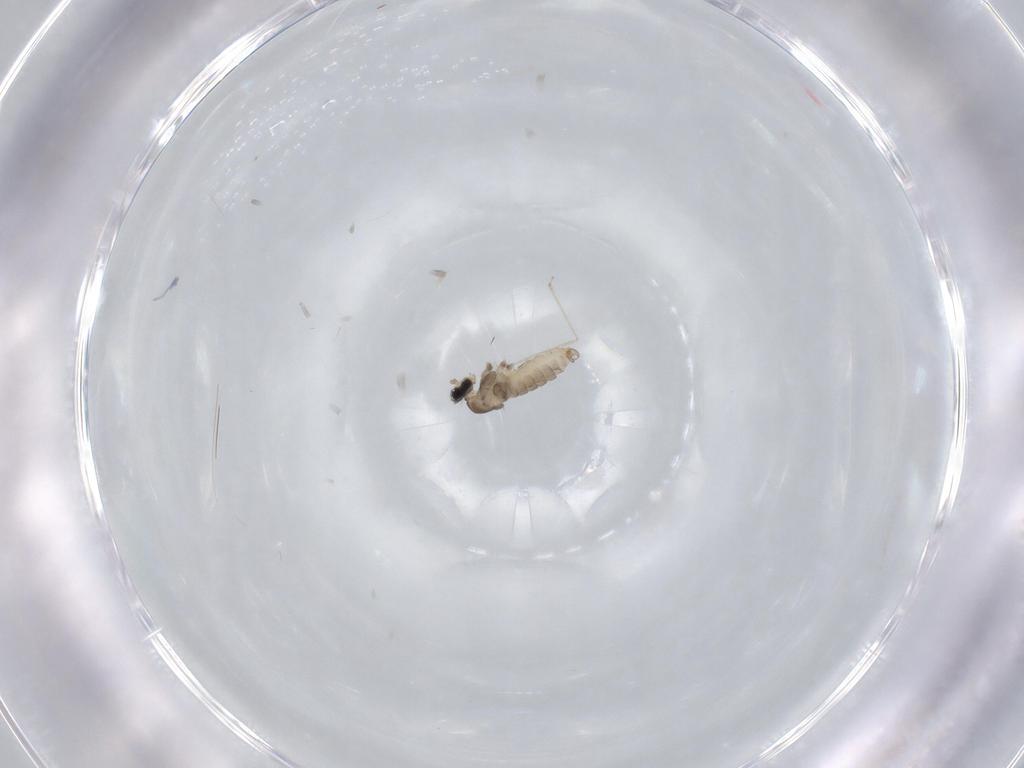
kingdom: Animalia
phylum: Arthropoda
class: Insecta
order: Diptera
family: Cecidomyiidae
